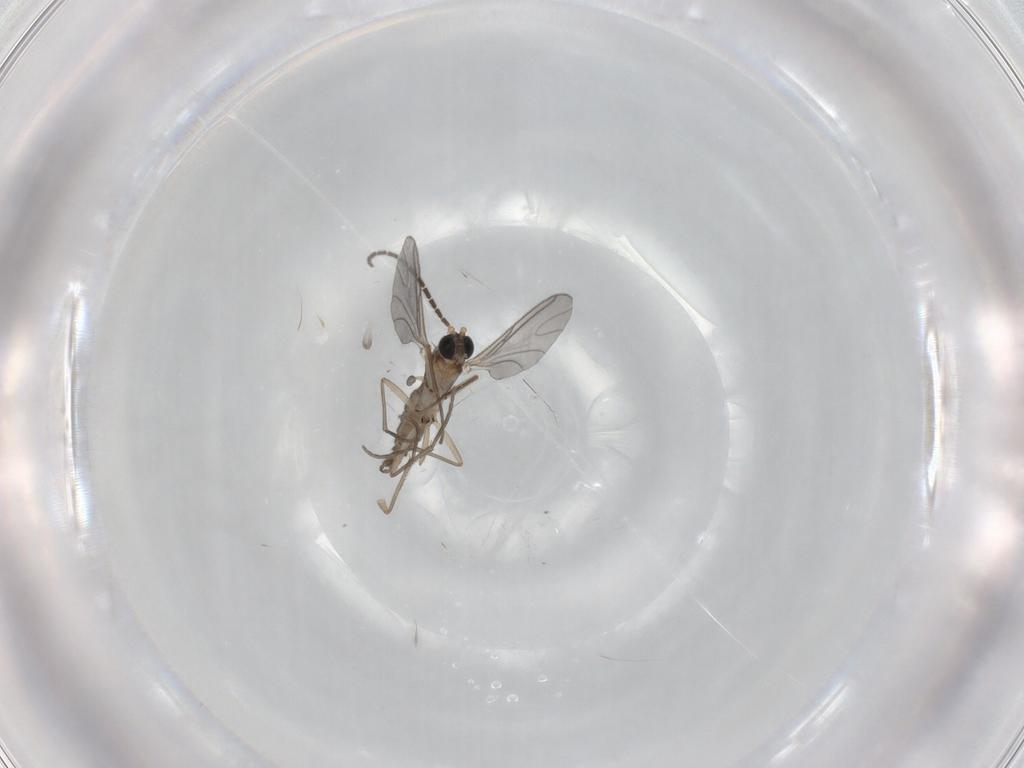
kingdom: Animalia
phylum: Arthropoda
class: Insecta
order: Diptera
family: Sciaridae
